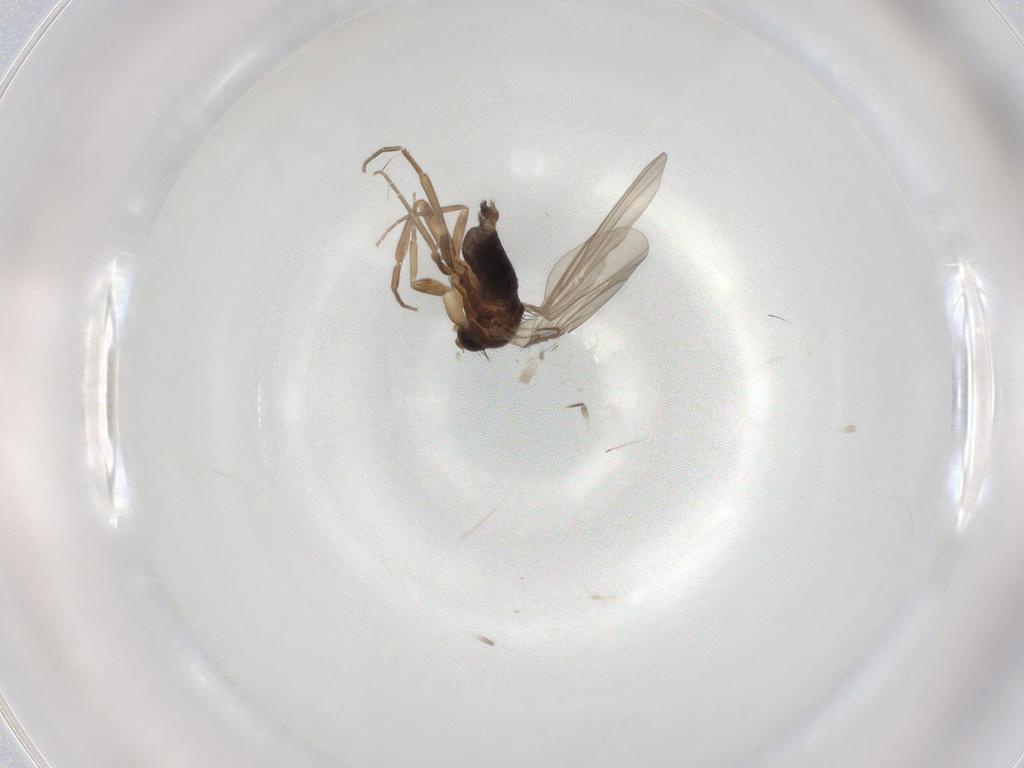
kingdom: Animalia
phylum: Arthropoda
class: Insecta
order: Diptera
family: Phoridae
